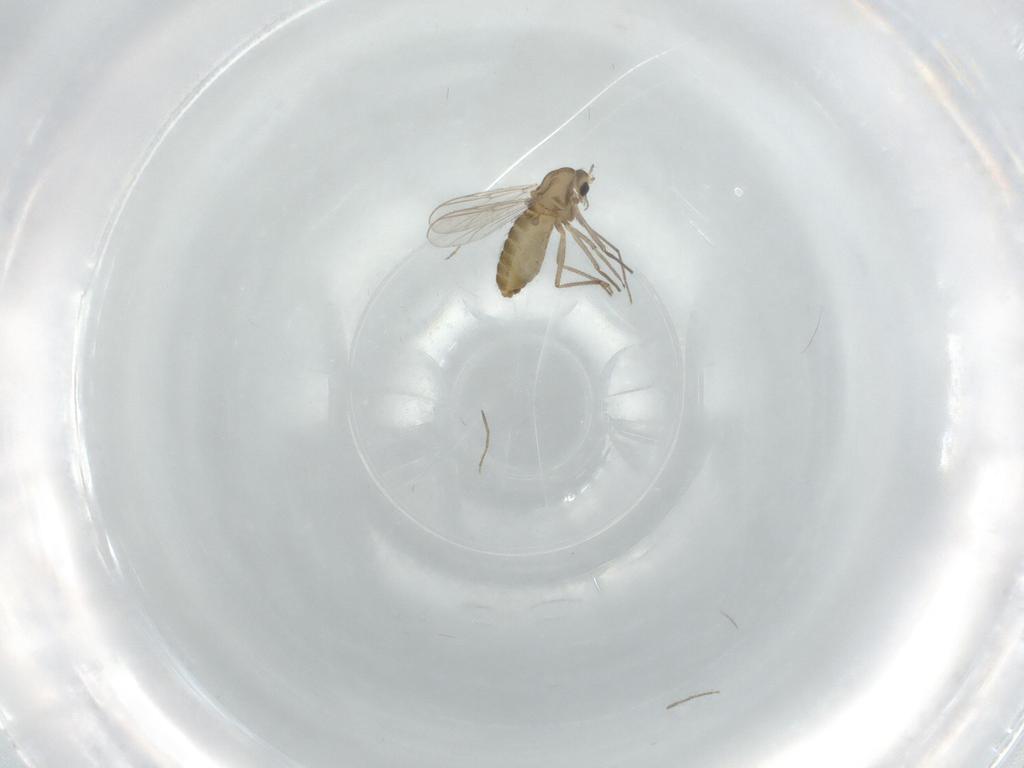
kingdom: Animalia
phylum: Arthropoda
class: Insecta
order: Diptera
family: Chironomidae
